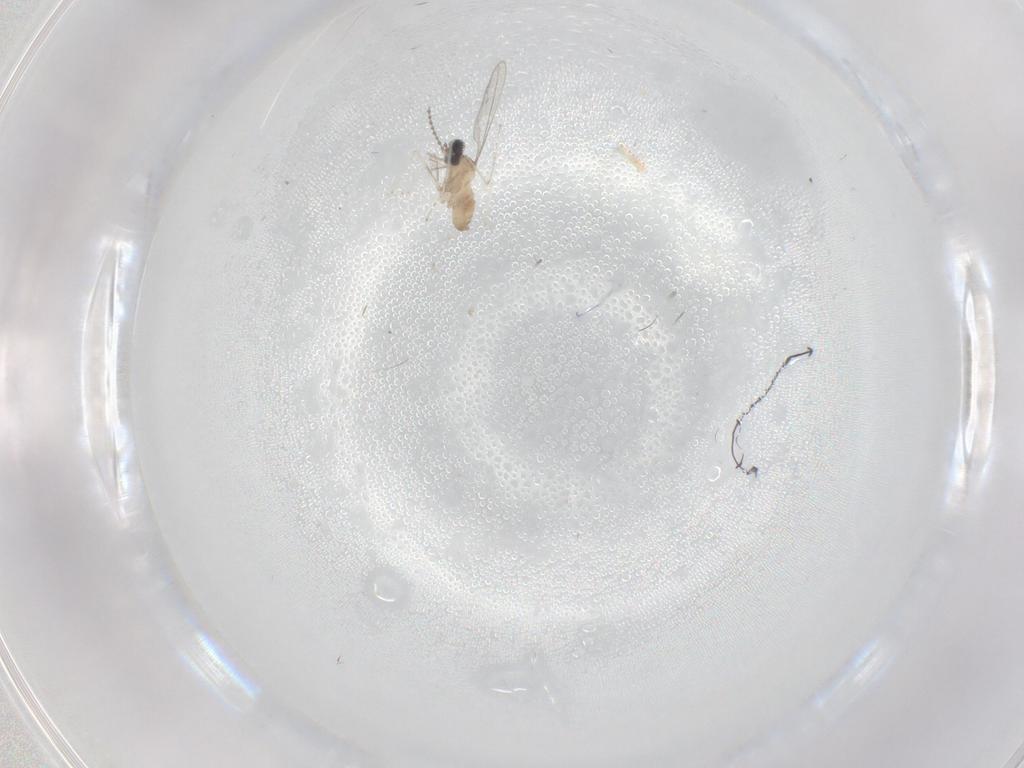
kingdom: Animalia
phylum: Arthropoda
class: Insecta
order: Diptera
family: Cecidomyiidae
